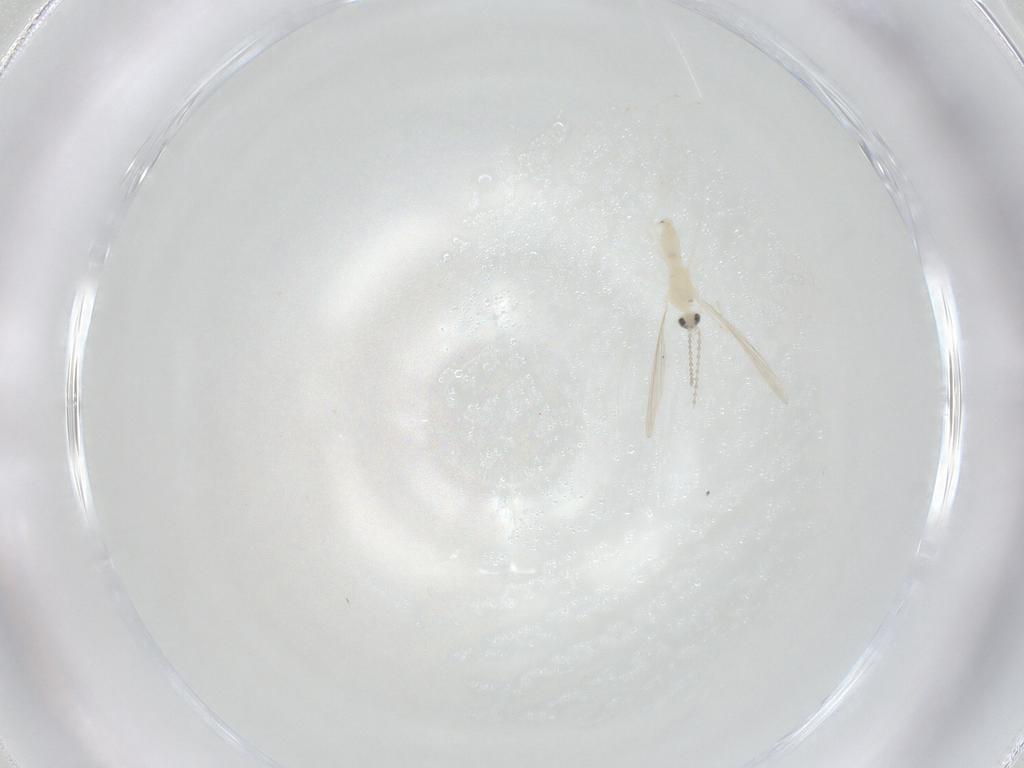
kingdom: Animalia
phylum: Arthropoda
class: Insecta
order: Diptera
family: Cecidomyiidae
